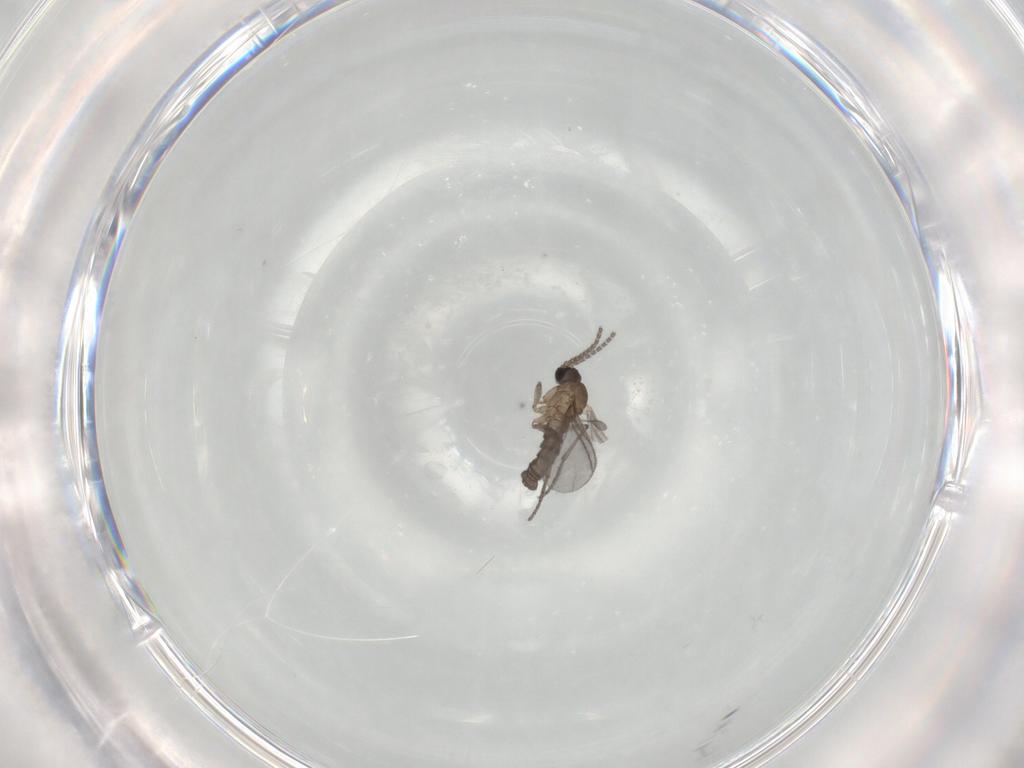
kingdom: Animalia
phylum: Arthropoda
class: Insecta
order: Diptera
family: Sciaridae
